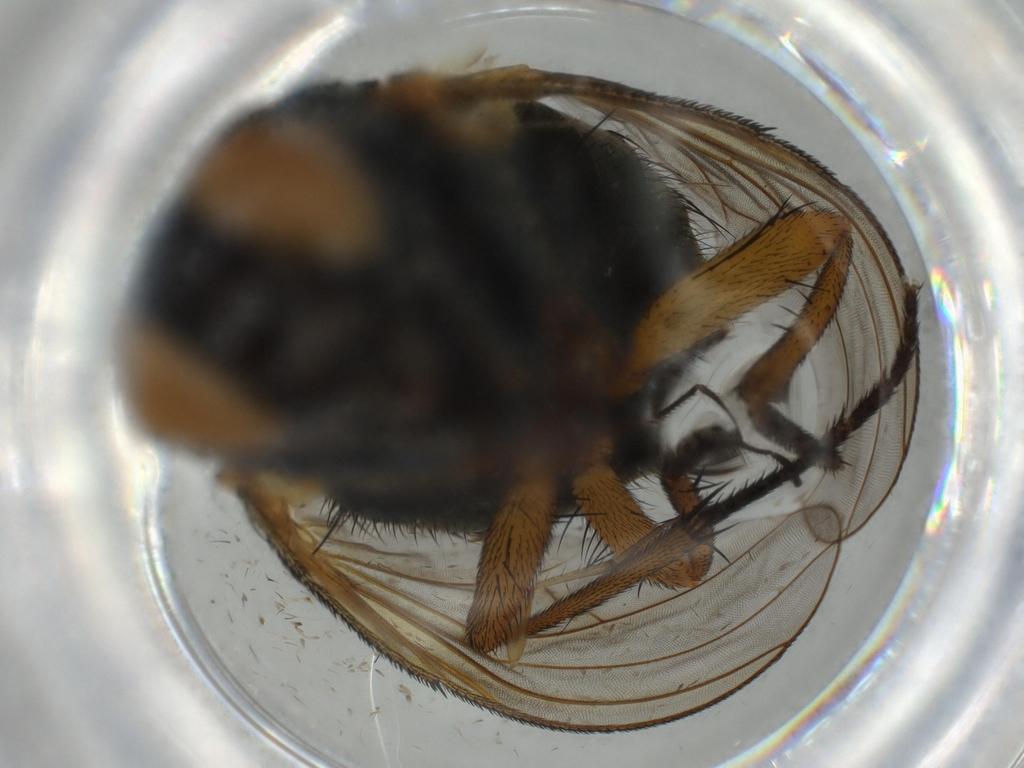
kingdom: Animalia
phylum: Arthropoda
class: Insecta
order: Diptera
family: Muscidae
